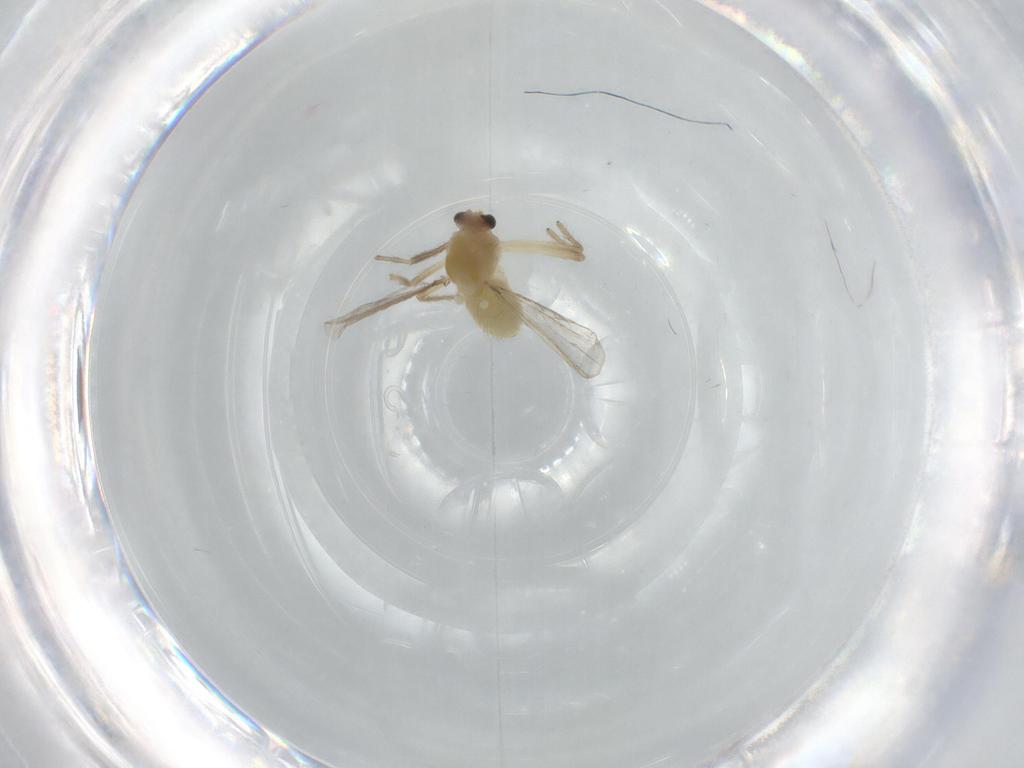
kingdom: Animalia
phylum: Arthropoda
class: Insecta
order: Diptera
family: Chironomidae
